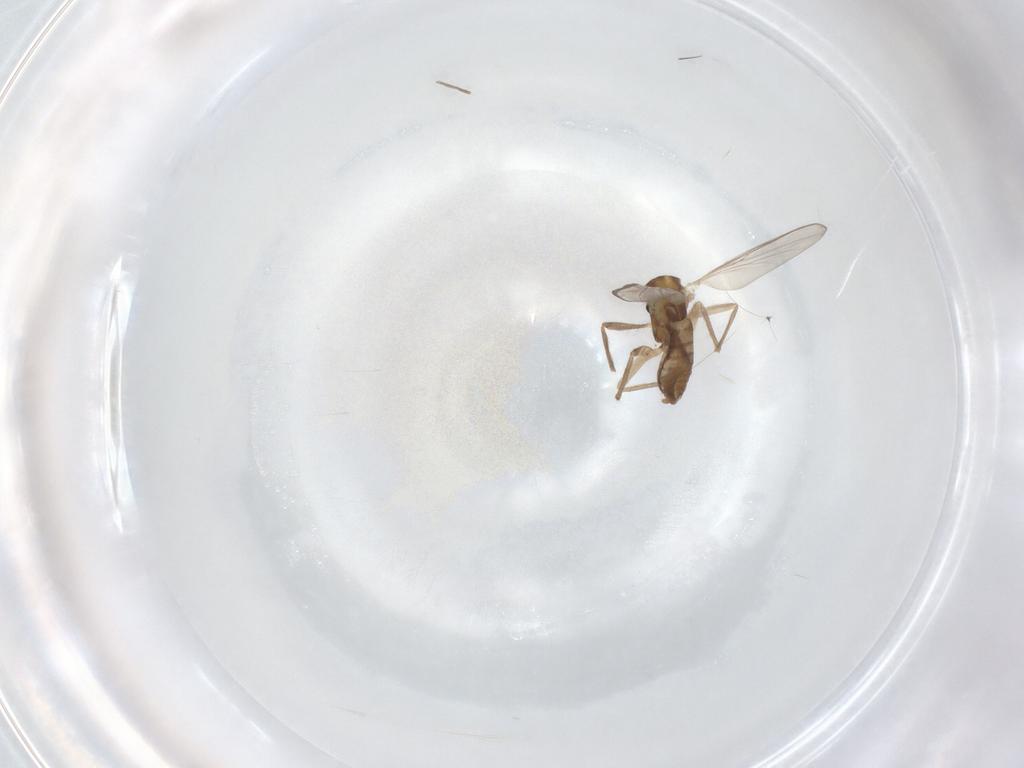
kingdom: Animalia
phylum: Arthropoda
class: Insecta
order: Diptera
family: Chironomidae
